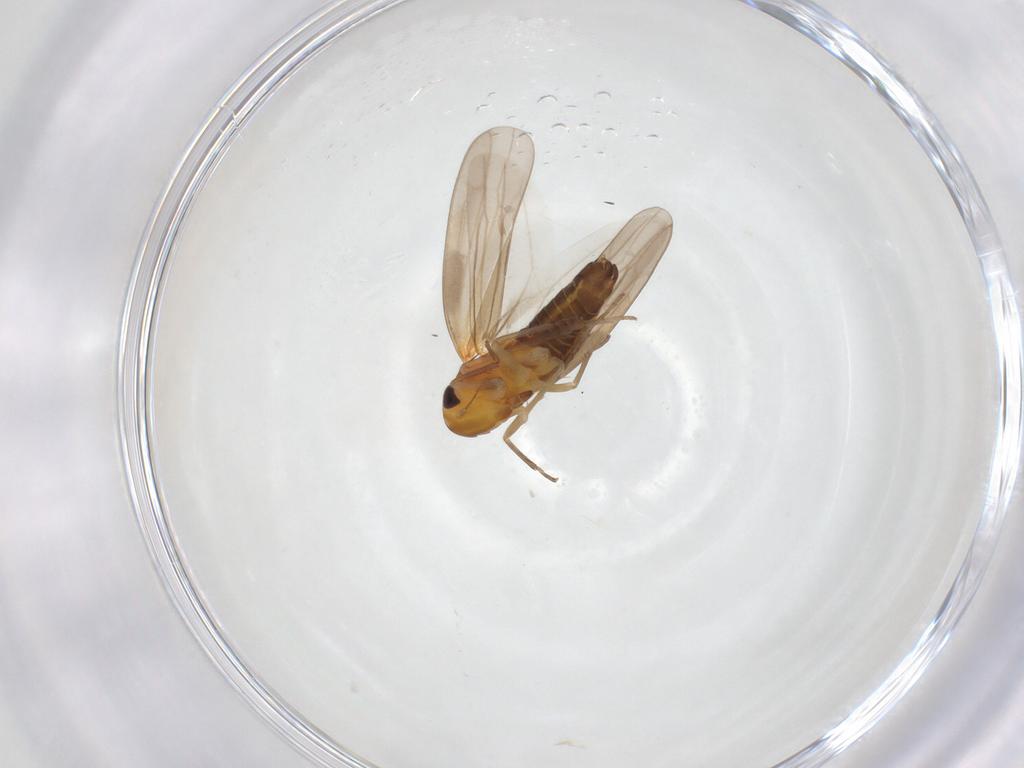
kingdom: Animalia
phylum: Arthropoda
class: Insecta
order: Hemiptera
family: Cicadellidae
